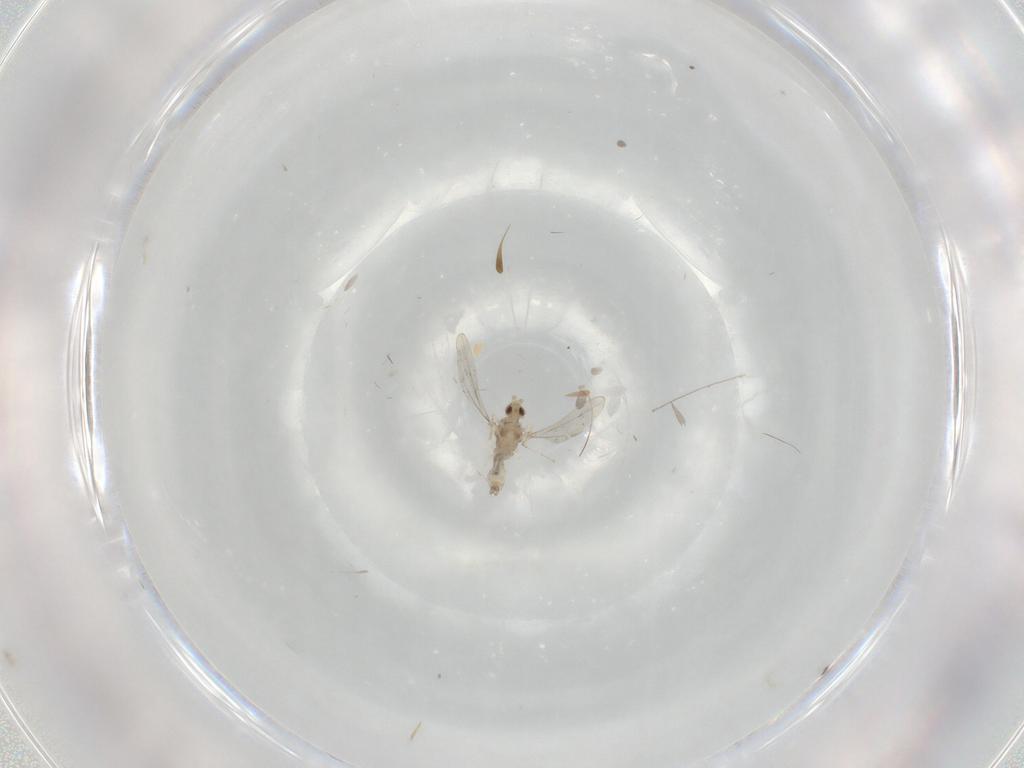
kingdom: Animalia
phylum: Arthropoda
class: Insecta
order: Diptera
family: Cecidomyiidae
